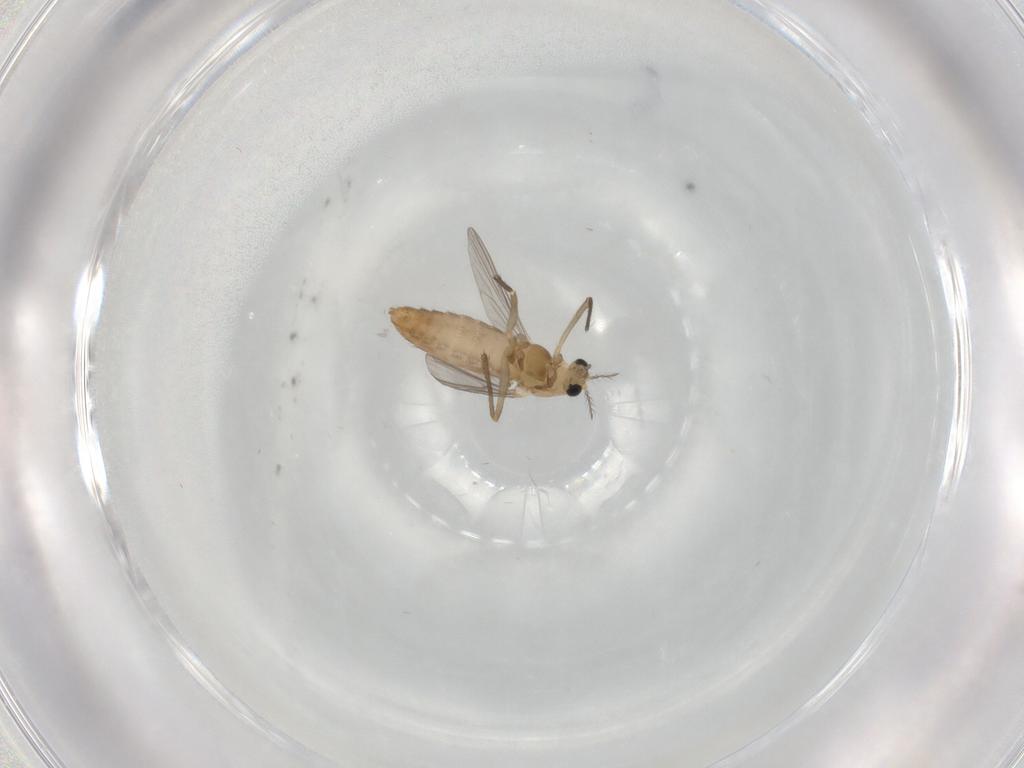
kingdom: Animalia
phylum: Arthropoda
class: Insecta
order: Diptera
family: Chironomidae
